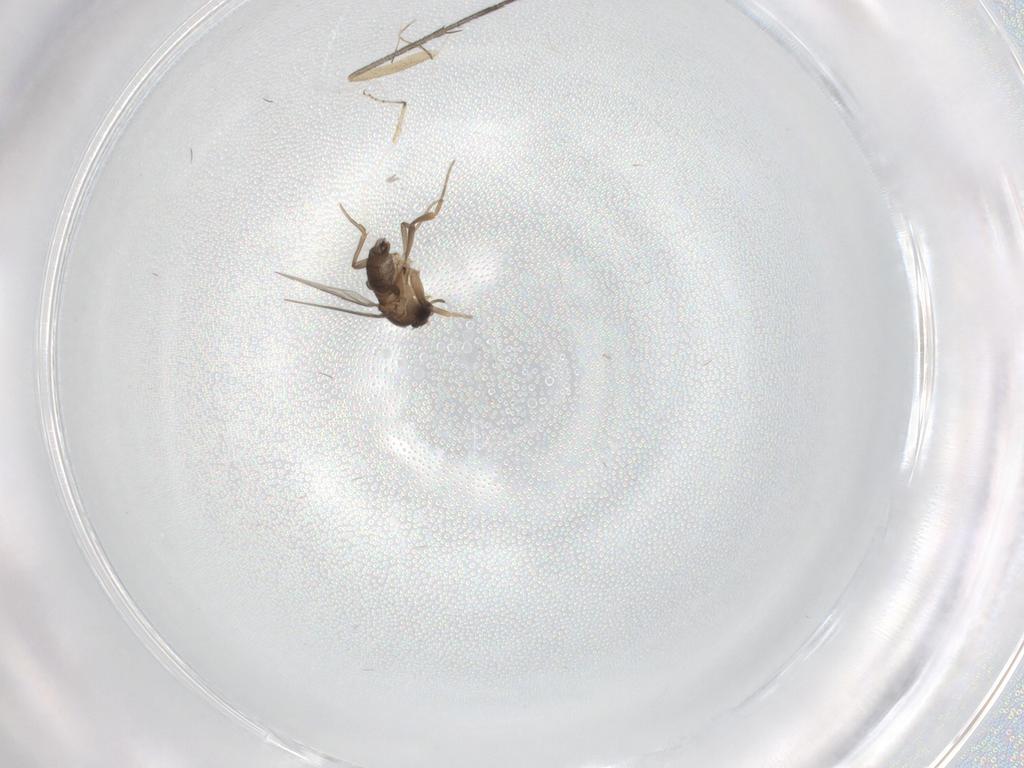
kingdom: Animalia
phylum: Arthropoda
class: Insecta
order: Diptera
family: Sciaridae
